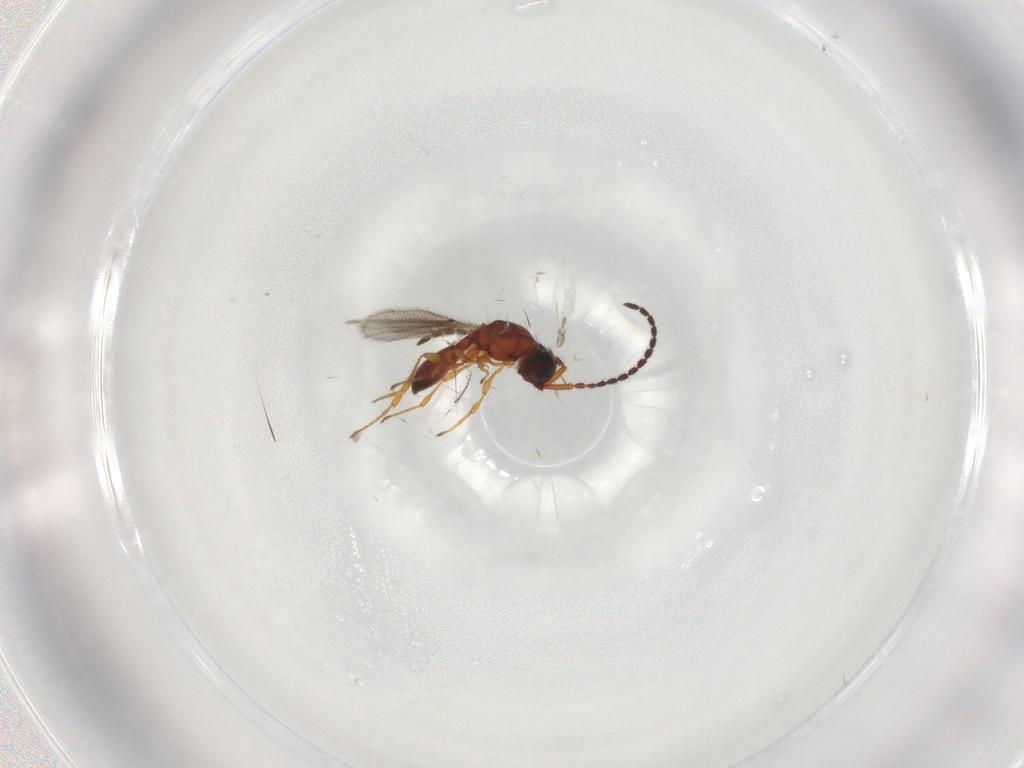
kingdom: Animalia
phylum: Arthropoda
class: Insecta
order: Hymenoptera
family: Diapriidae
